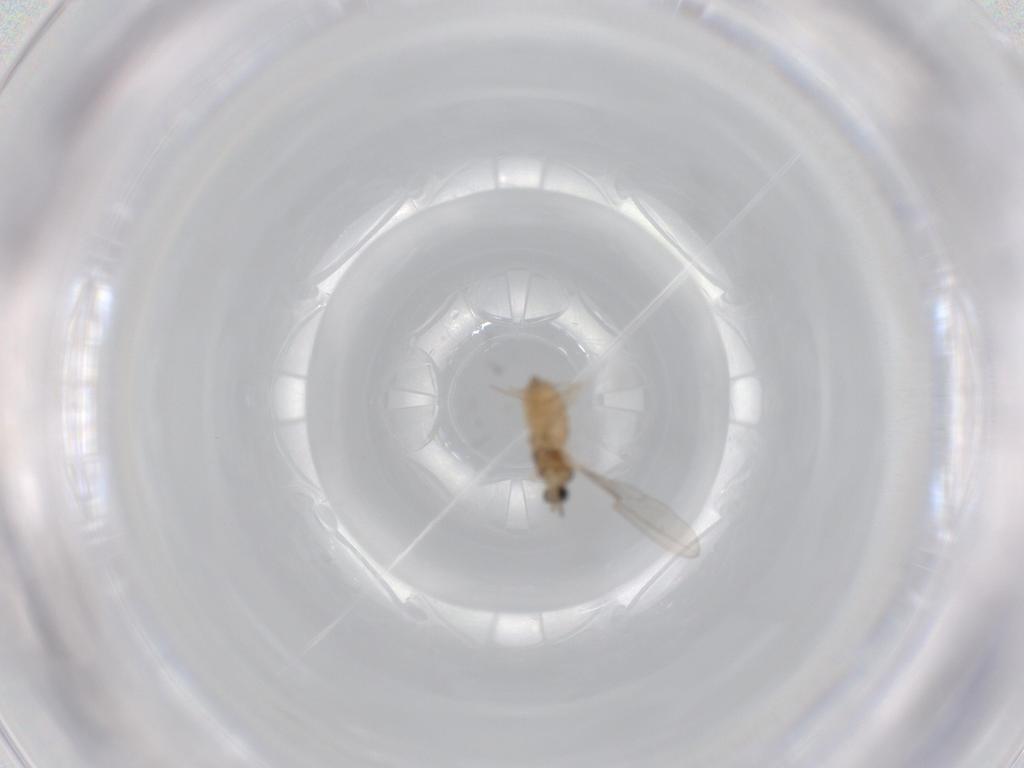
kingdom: Animalia
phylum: Arthropoda
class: Insecta
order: Diptera
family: Cecidomyiidae
